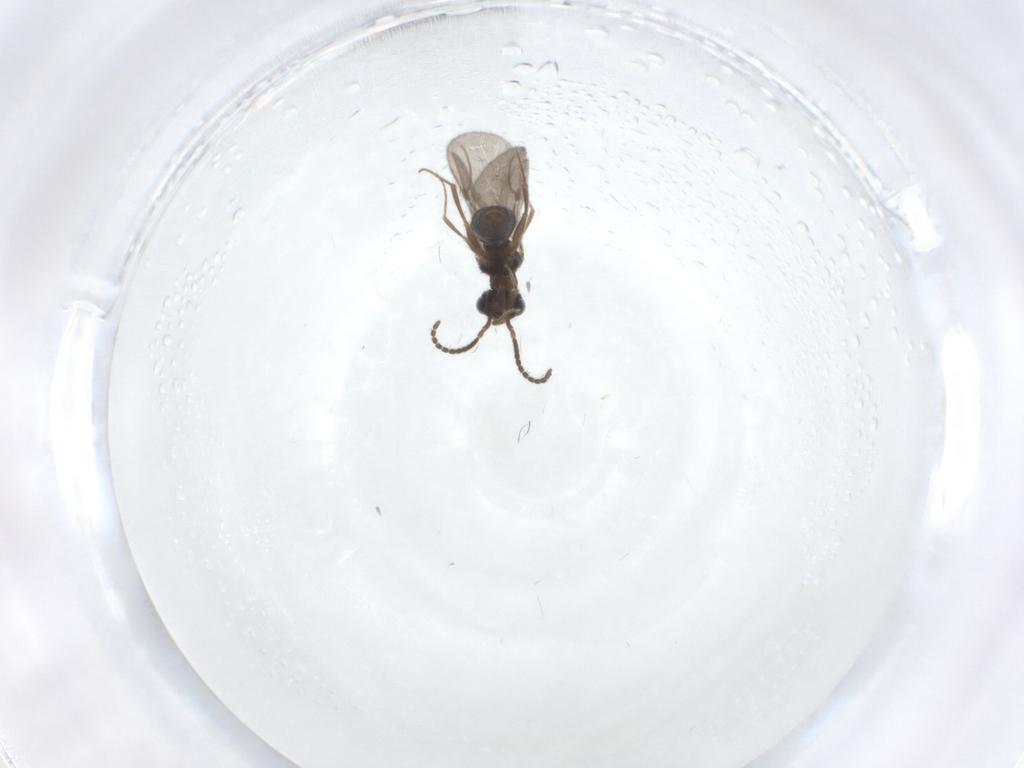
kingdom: Animalia
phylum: Arthropoda
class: Insecta
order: Hymenoptera
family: Bethylidae
